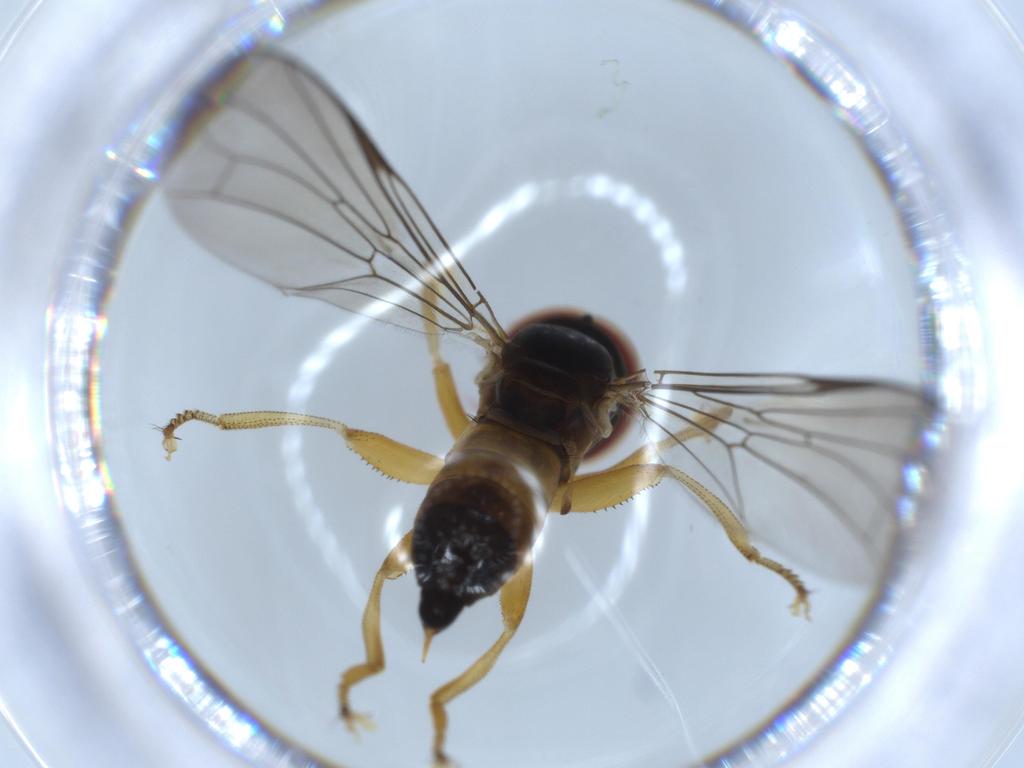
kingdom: Animalia
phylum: Arthropoda
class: Insecta
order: Diptera
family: Pipunculidae
